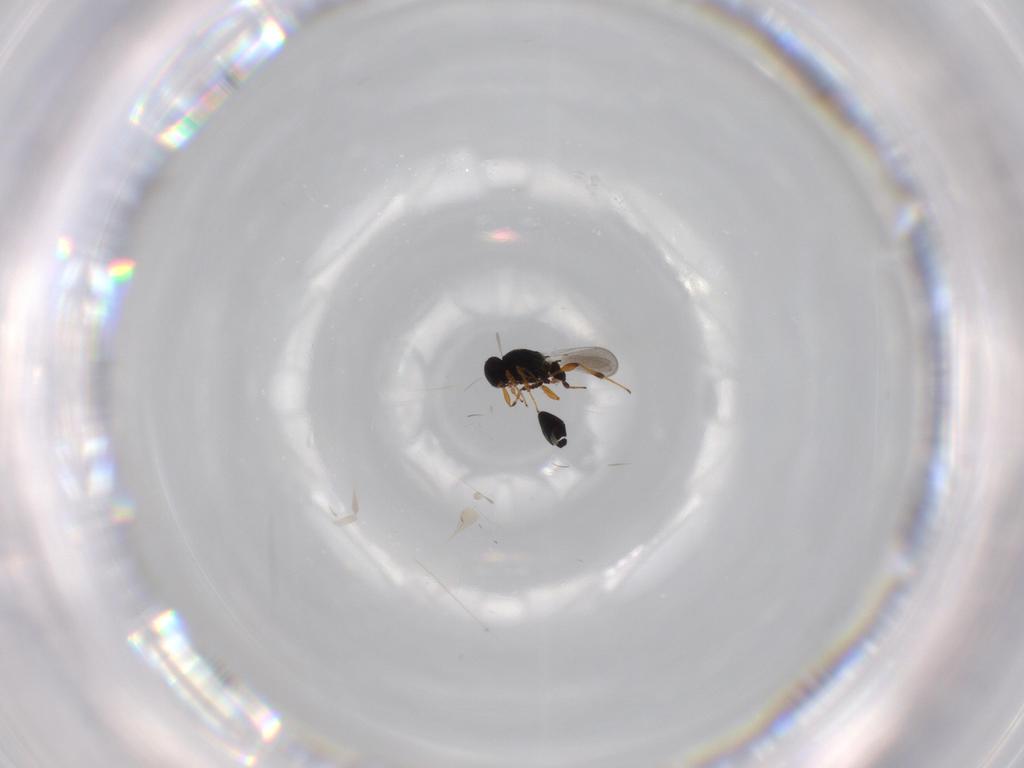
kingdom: Animalia
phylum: Arthropoda
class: Insecta
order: Hymenoptera
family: Platygastridae
